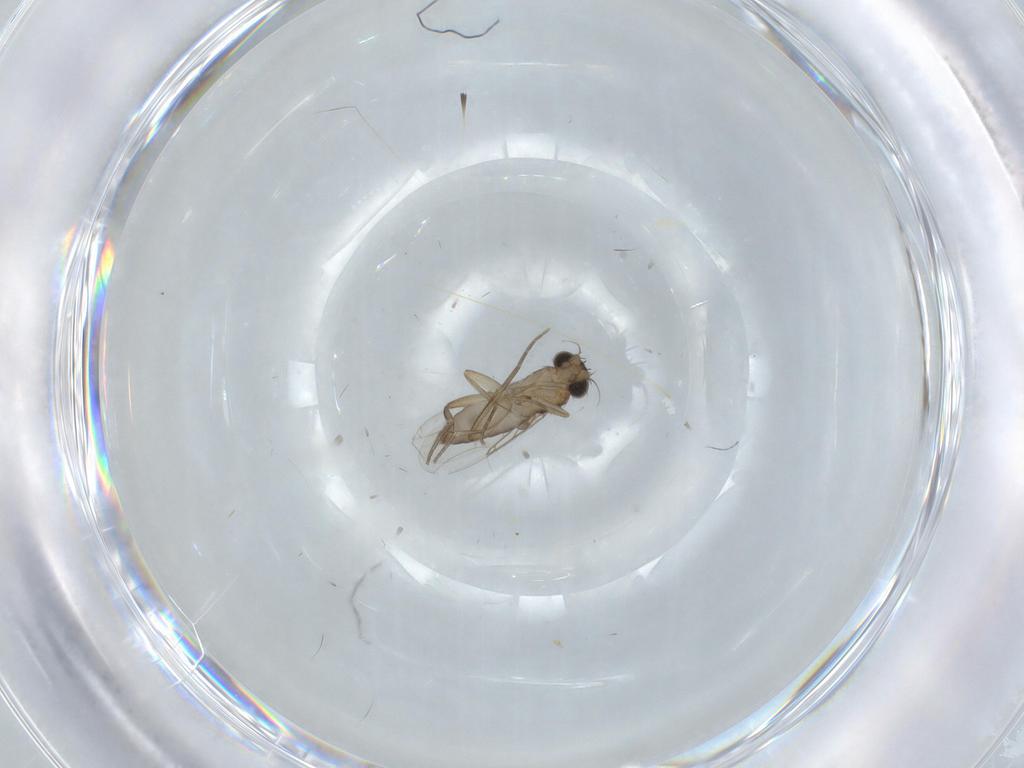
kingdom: Animalia
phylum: Arthropoda
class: Insecta
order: Diptera
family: Phoridae
